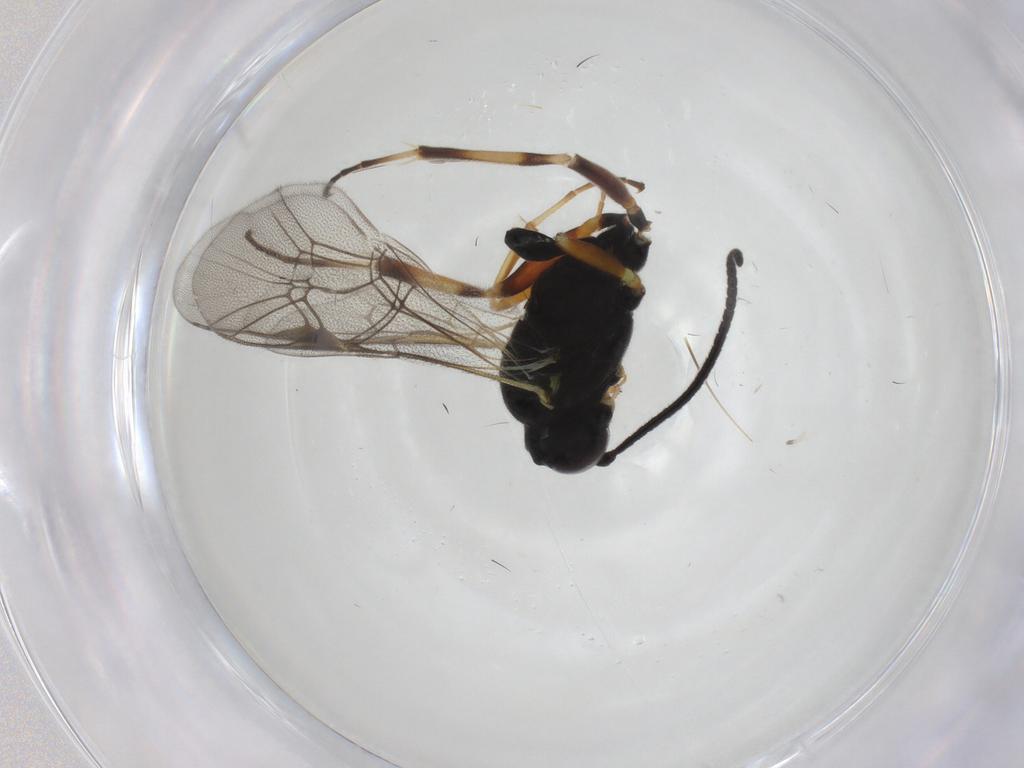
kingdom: Animalia
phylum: Arthropoda
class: Insecta
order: Hymenoptera
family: Ichneumonidae
